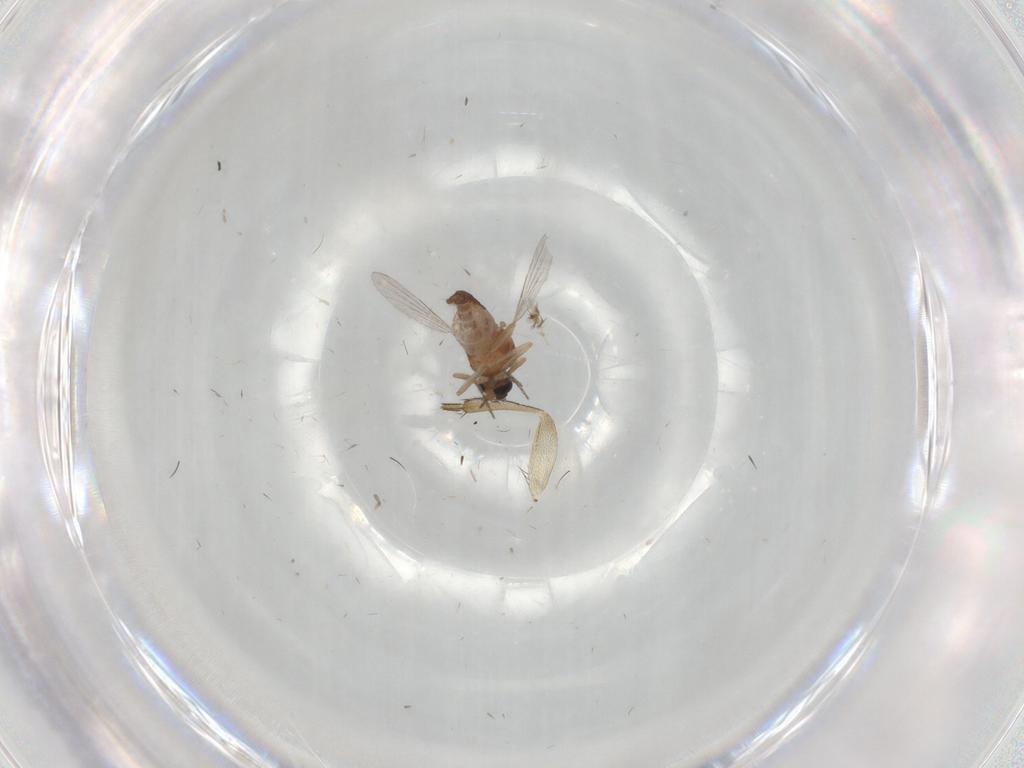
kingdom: Animalia
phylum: Arthropoda
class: Insecta
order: Diptera
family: Ceratopogonidae
